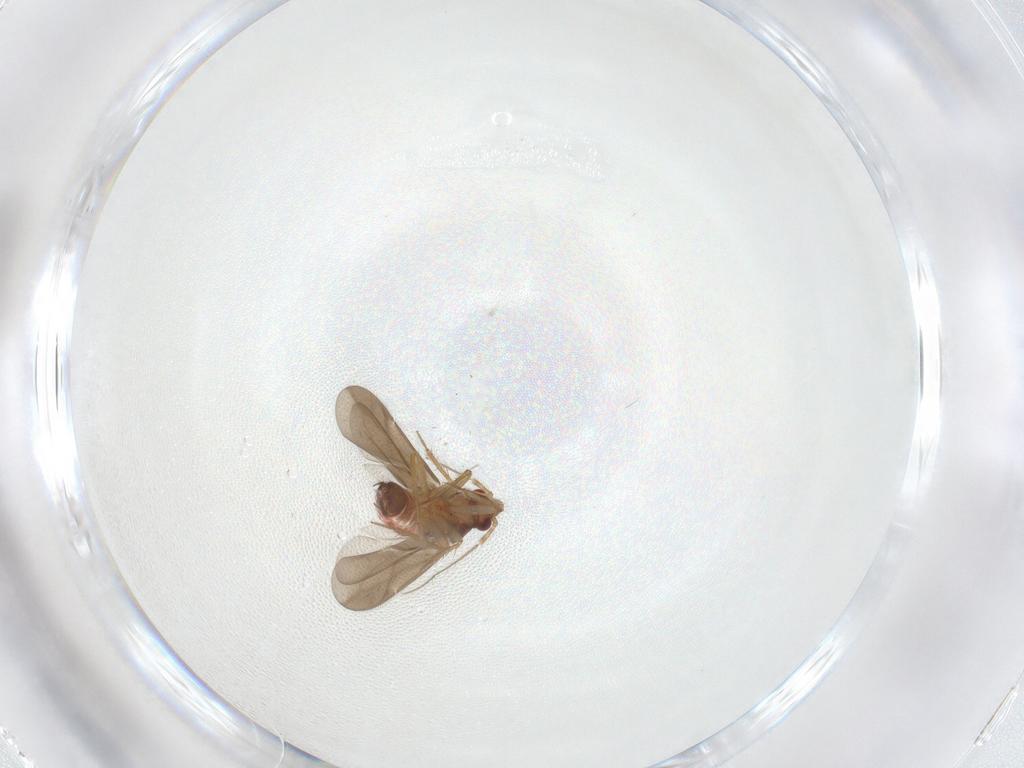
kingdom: Animalia
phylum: Arthropoda
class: Insecta
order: Hemiptera
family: Ceratocombidae
